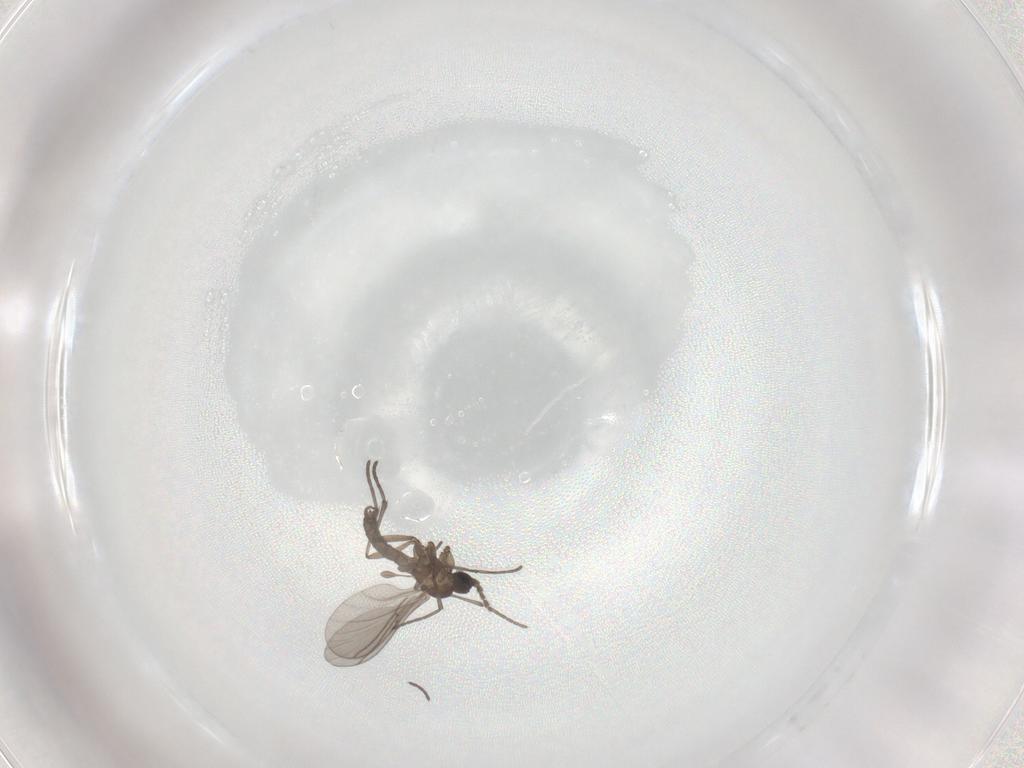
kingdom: Animalia
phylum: Arthropoda
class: Insecta
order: Diptera
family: Sciaridae
